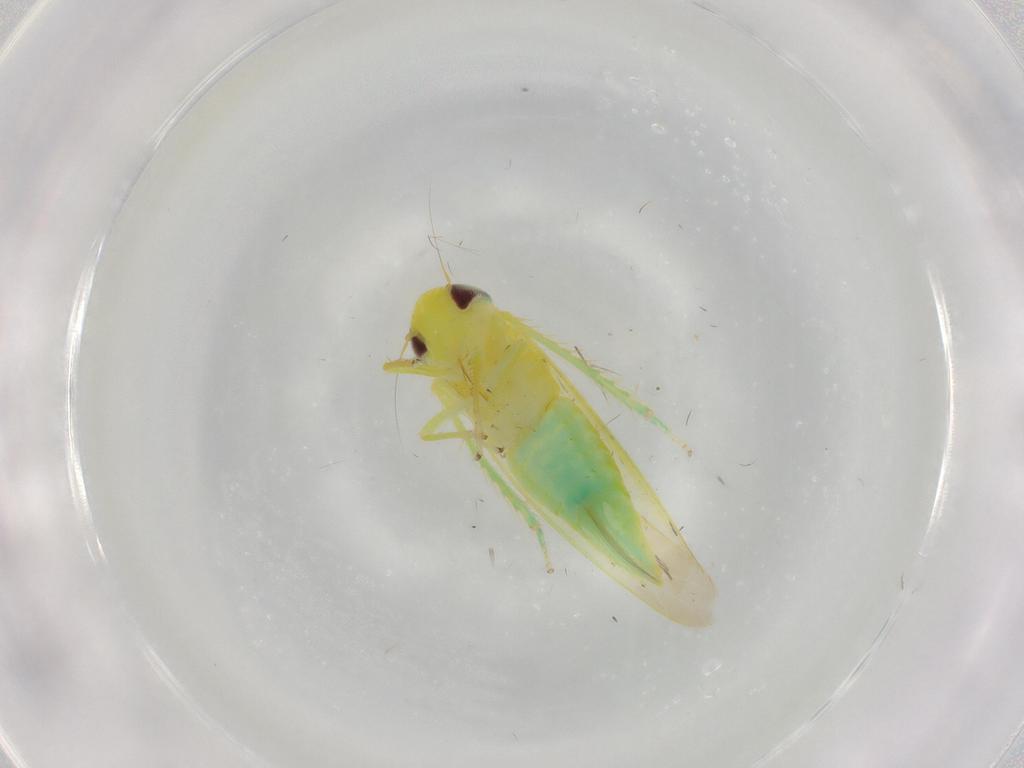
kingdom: Animalia
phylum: Arthropoda
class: Insecta
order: Hemiptera
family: Cicadellidae
